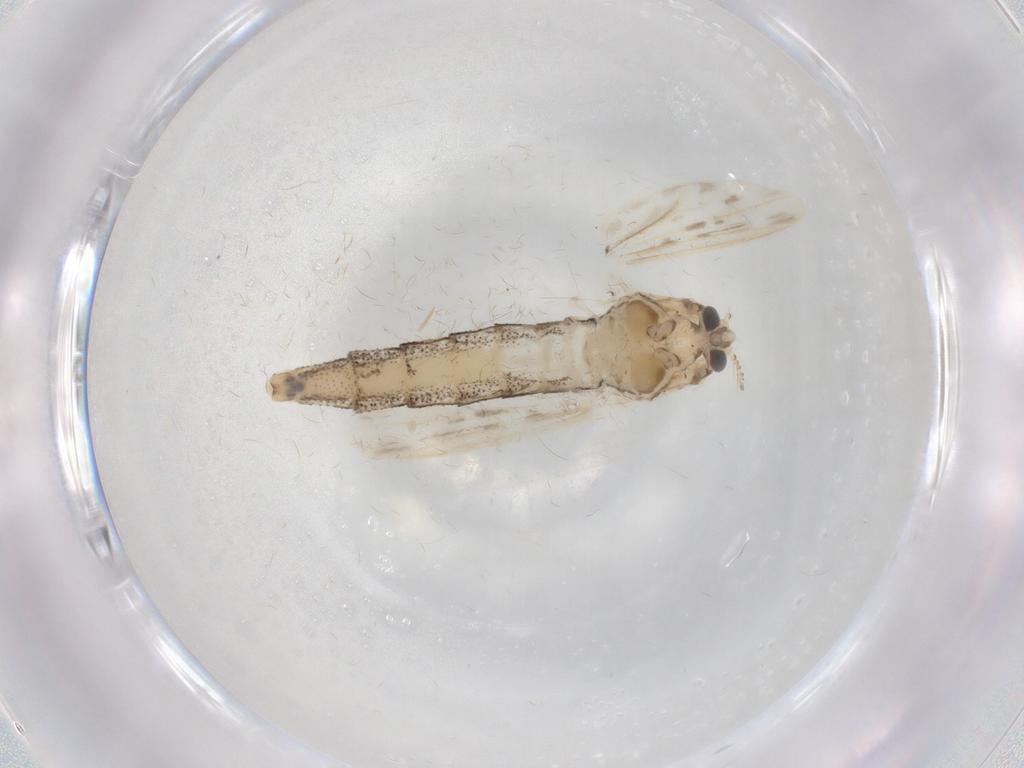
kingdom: Animalia
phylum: Arthropoda
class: Insecta
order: Diptera
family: Chaoboridae
